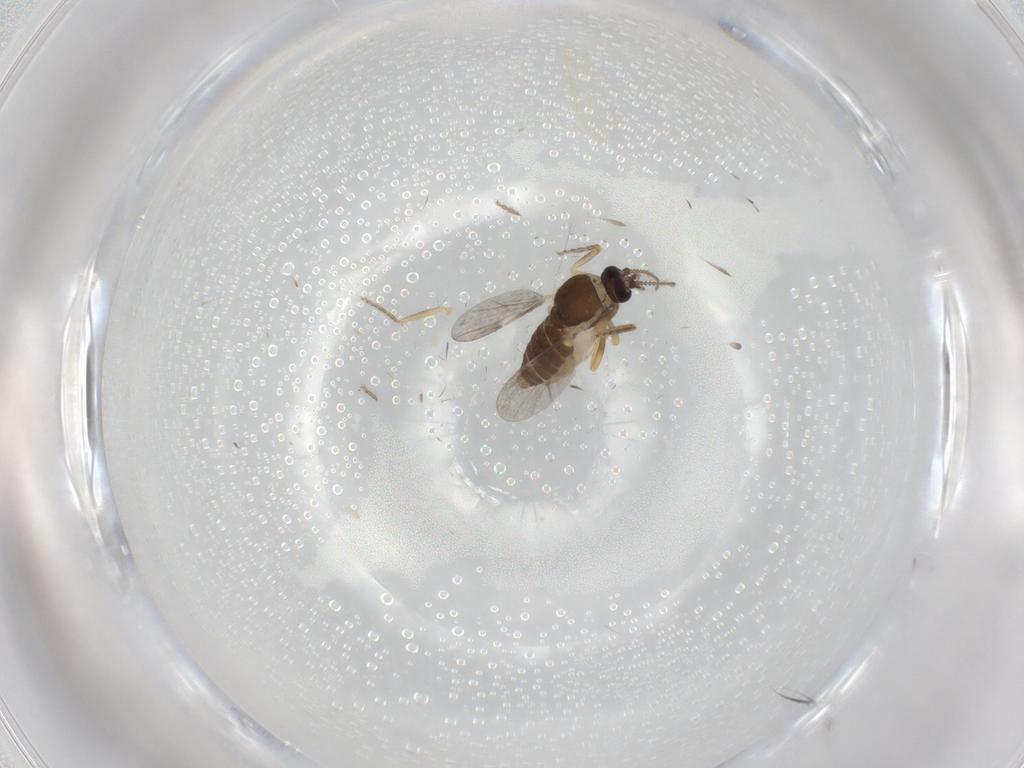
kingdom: Animalia
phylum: Arthropoda
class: Insecta
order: Diptera
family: Ceratopogonidae
